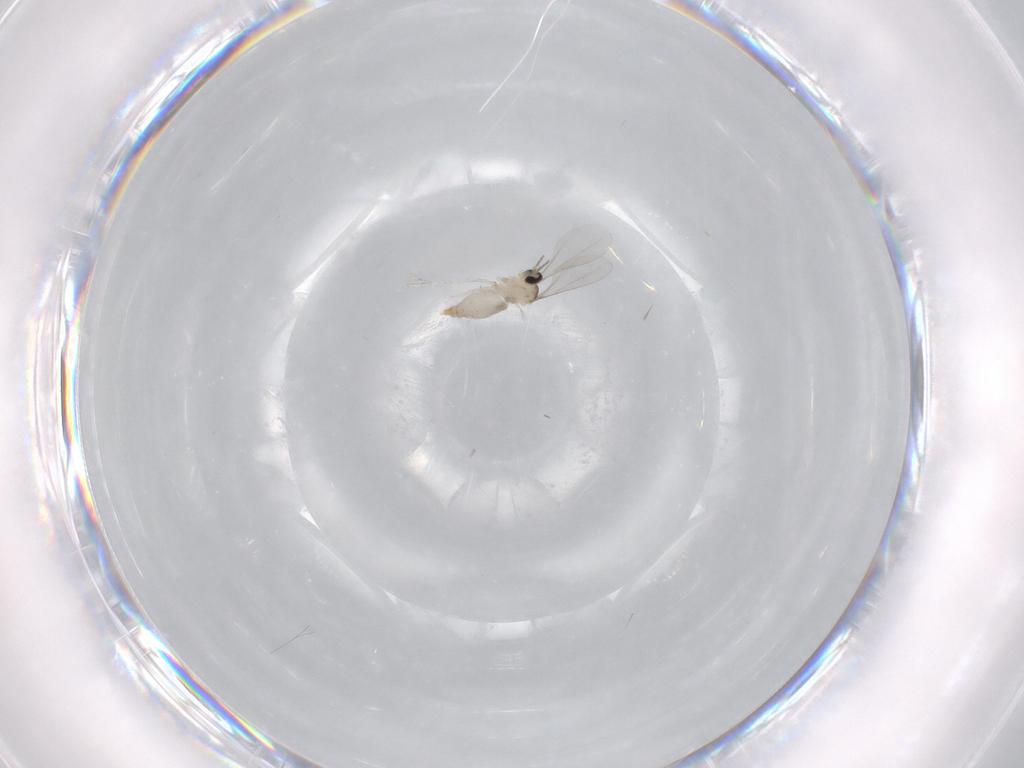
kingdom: Animalia
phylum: Arthropoda
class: Insecta
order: Diptera
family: Cecidomyiidae
